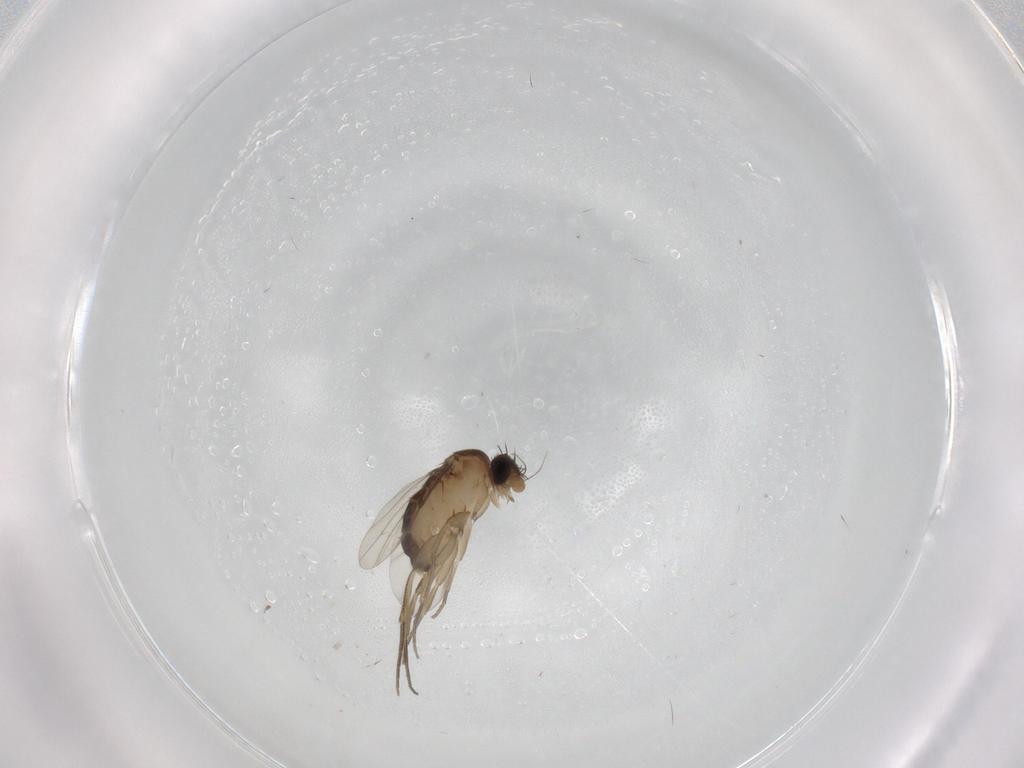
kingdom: Animalia
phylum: Arthropoda
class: Insecta
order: Diptera
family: Phoridae
